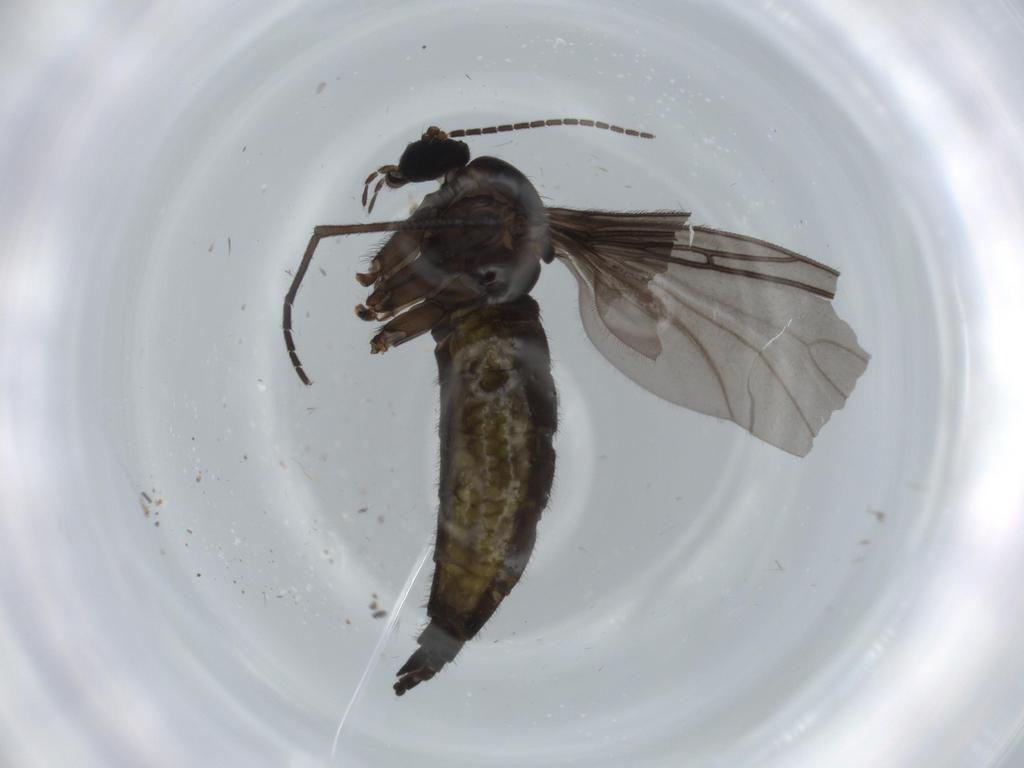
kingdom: Animalia
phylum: Arthropoda
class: Insecta
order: Diptera
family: Sciaridae
